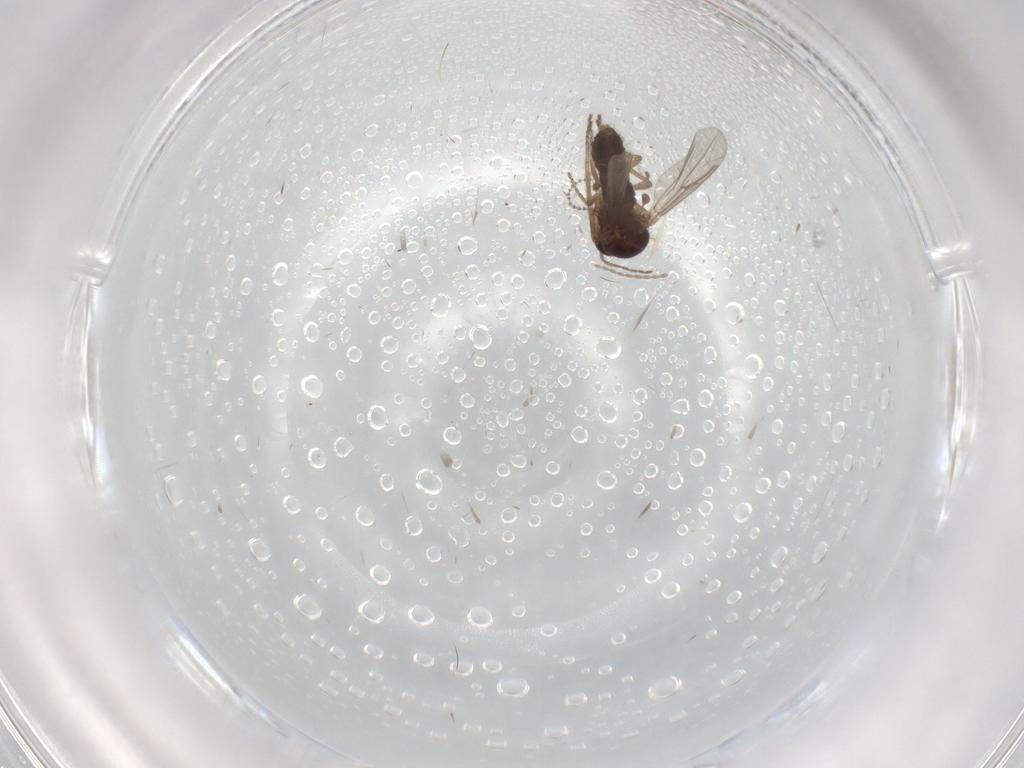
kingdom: Animalia
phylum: Arthropoda
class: Insecta
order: Diptera
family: Ceratopogonidae
